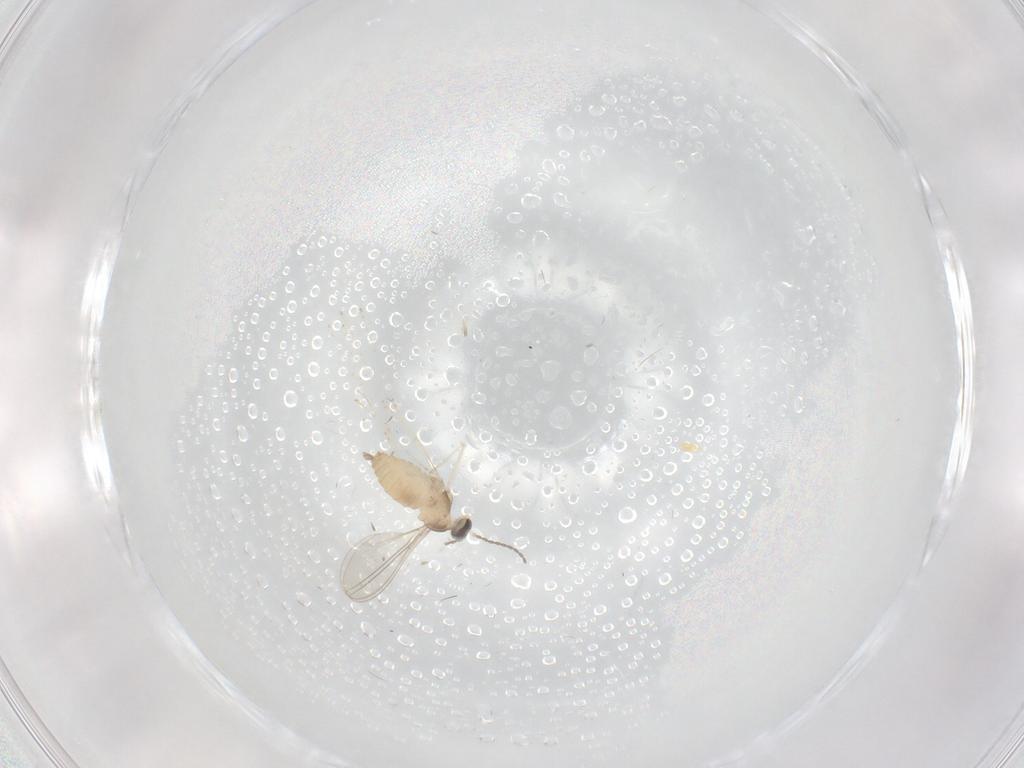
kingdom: Animalia
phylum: Arthropoda
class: Insecta
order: Diptera
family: Cecidomyiidae
